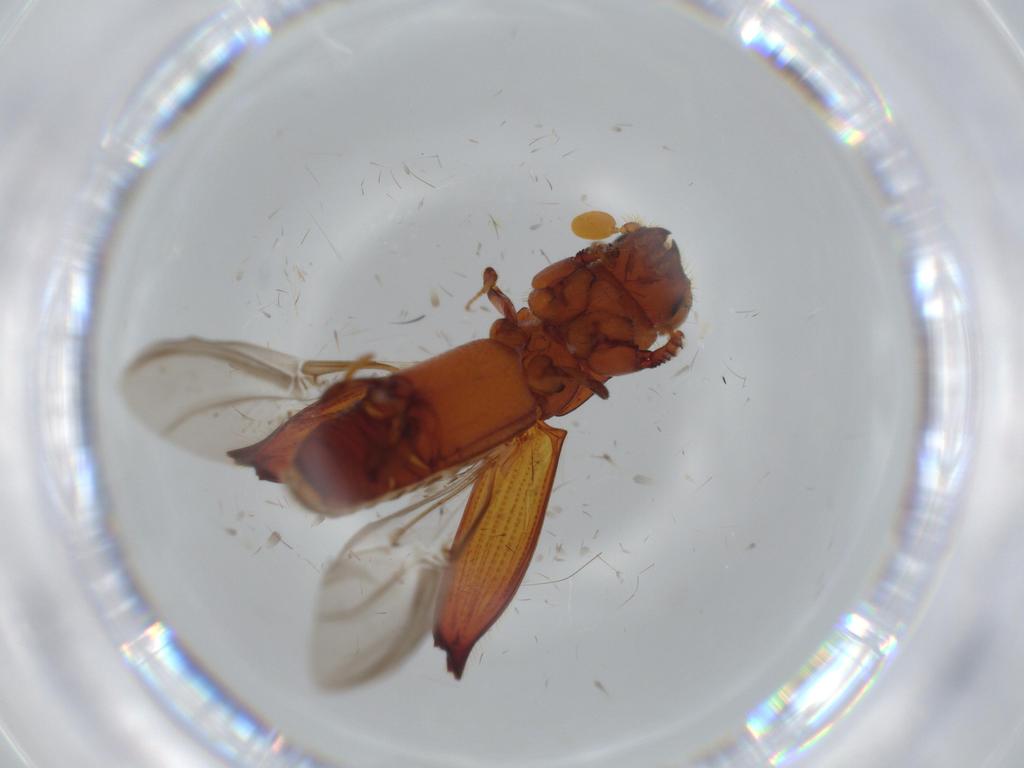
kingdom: Animalia
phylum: Arthropoda
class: Insecta
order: Coleoptera
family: Curculionidae
